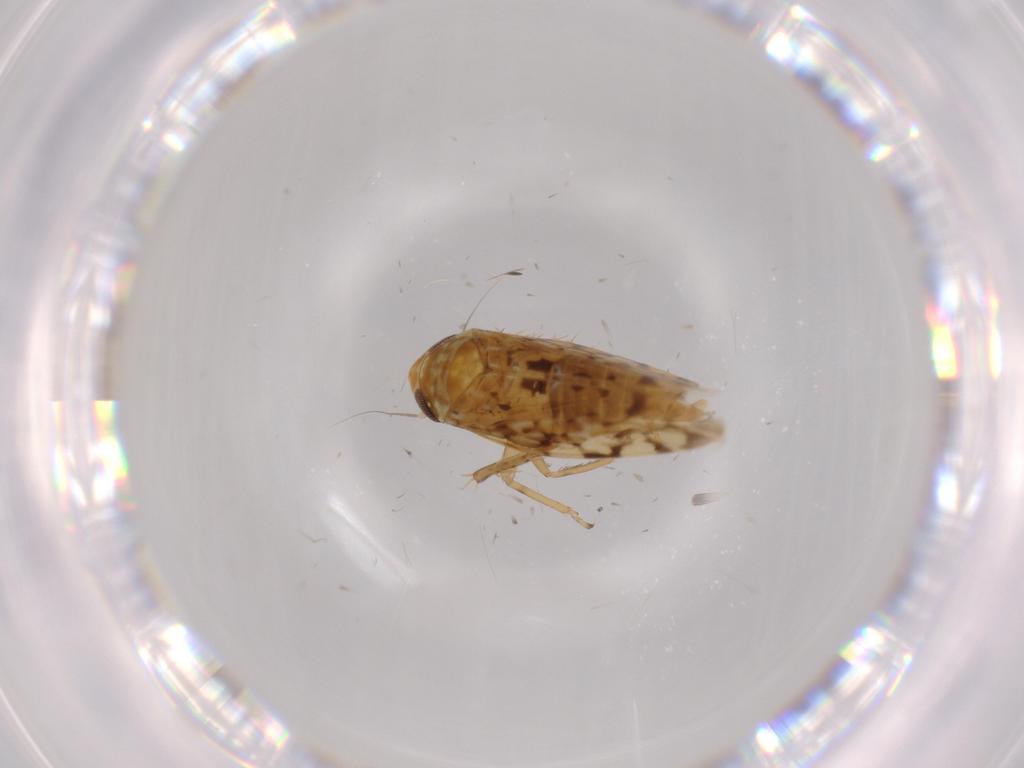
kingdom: Animalia
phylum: Arthropoda
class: Insecta
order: Hemiptera
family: Cicadellidae
